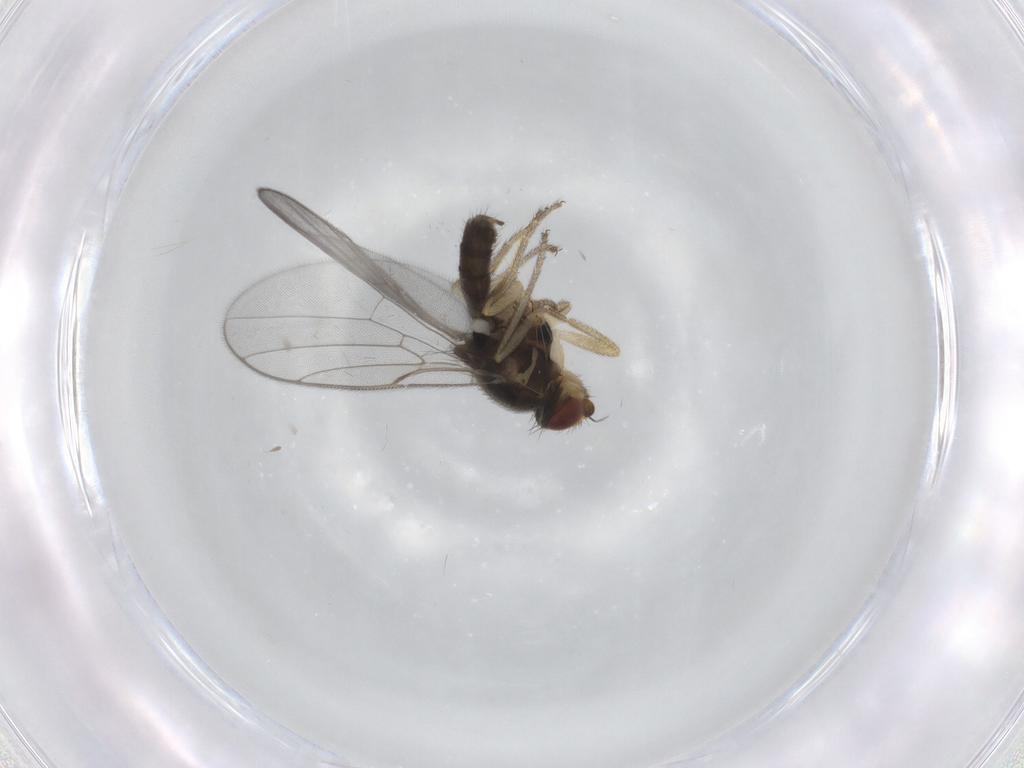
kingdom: Animalia
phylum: Arthropoda
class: Insecta
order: Diptera
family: Chloropidae
